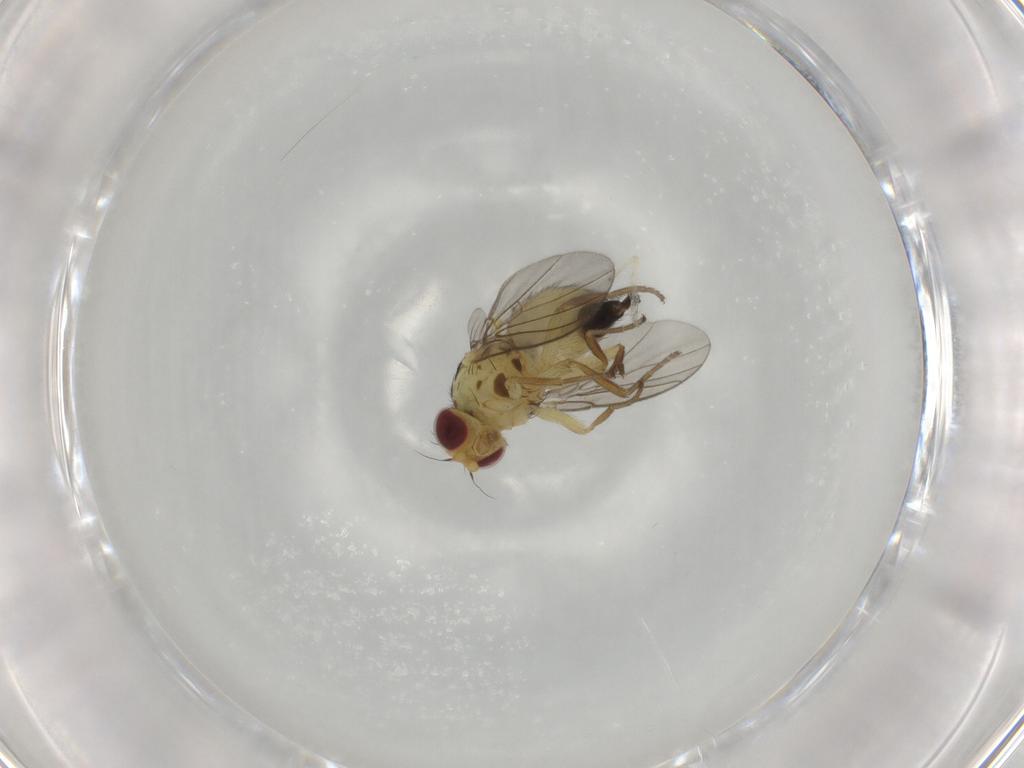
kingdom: Animalia
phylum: Arthropoda
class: Insecta
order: Diptera
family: Agromyzidae
